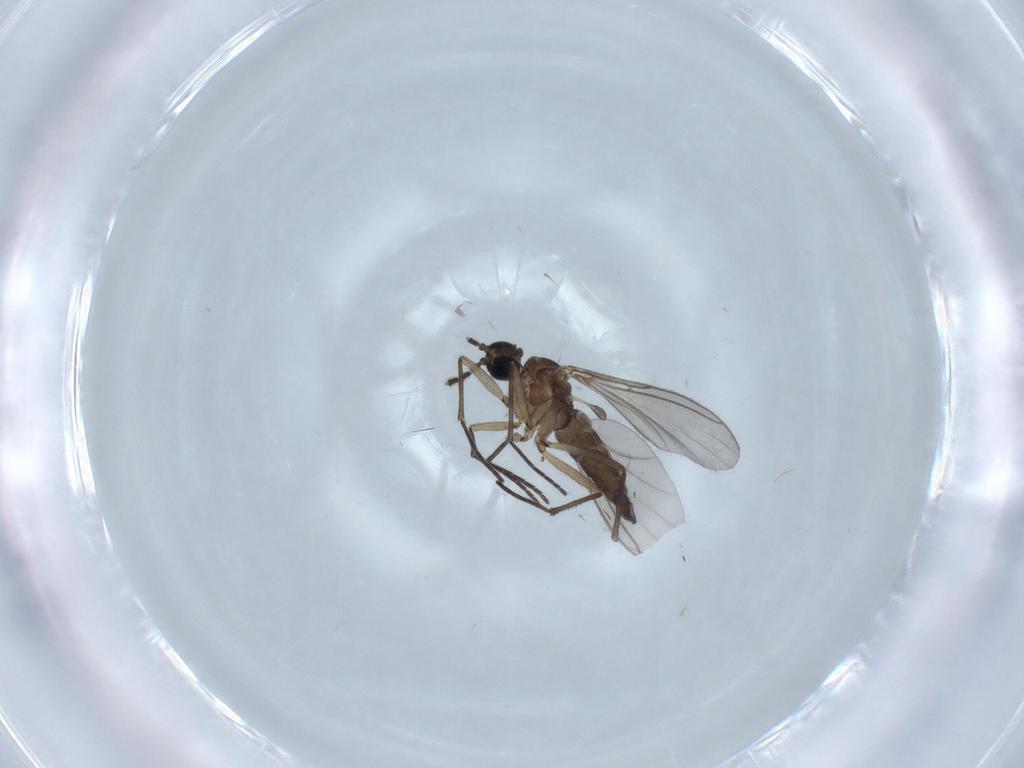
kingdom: Animalia
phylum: Arthropoda
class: Insecta
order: Diptera
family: Sciaridae
